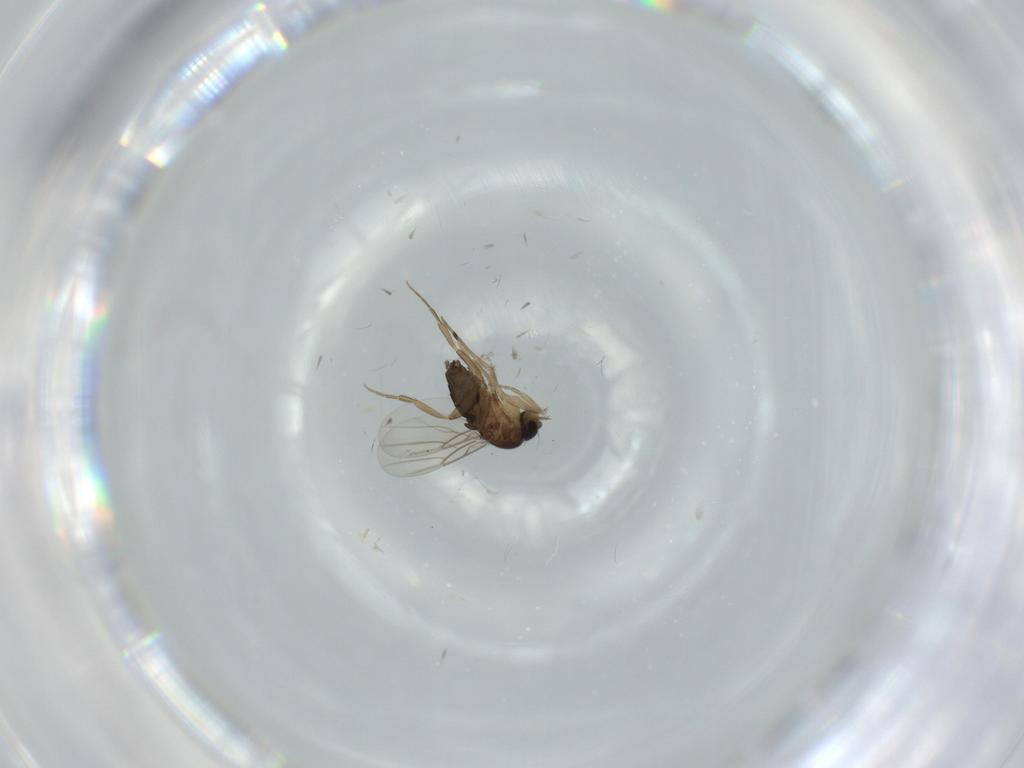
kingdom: Animalia
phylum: Arthropoda
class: Insecta
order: Diptera
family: Phoridae
